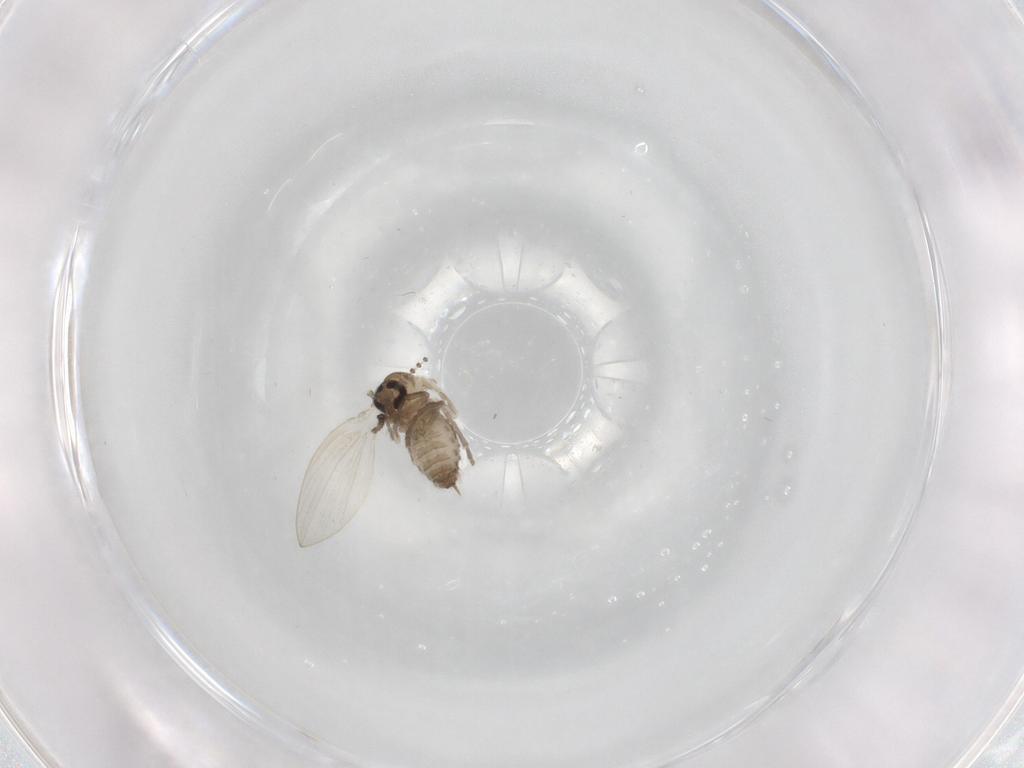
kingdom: Animalia
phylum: Arthropoda
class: Insecta
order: Diptera
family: Psychodidae
